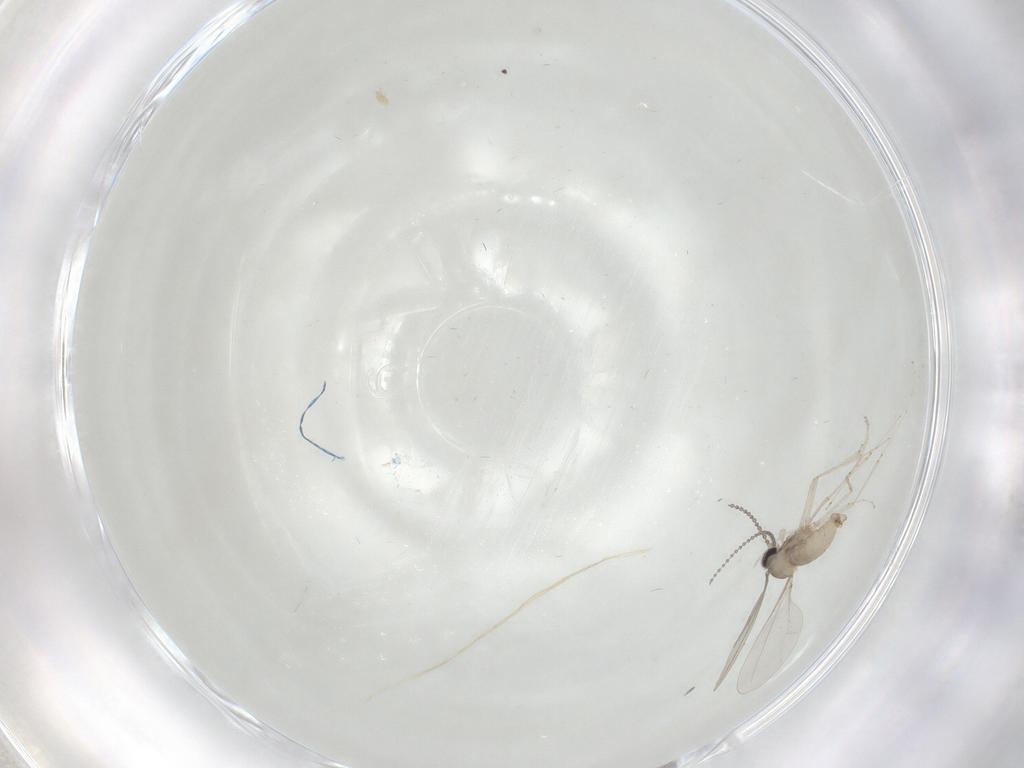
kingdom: Animalia
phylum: Arthropoda
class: Insecta
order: Diptera
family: Cecidomyiidae
